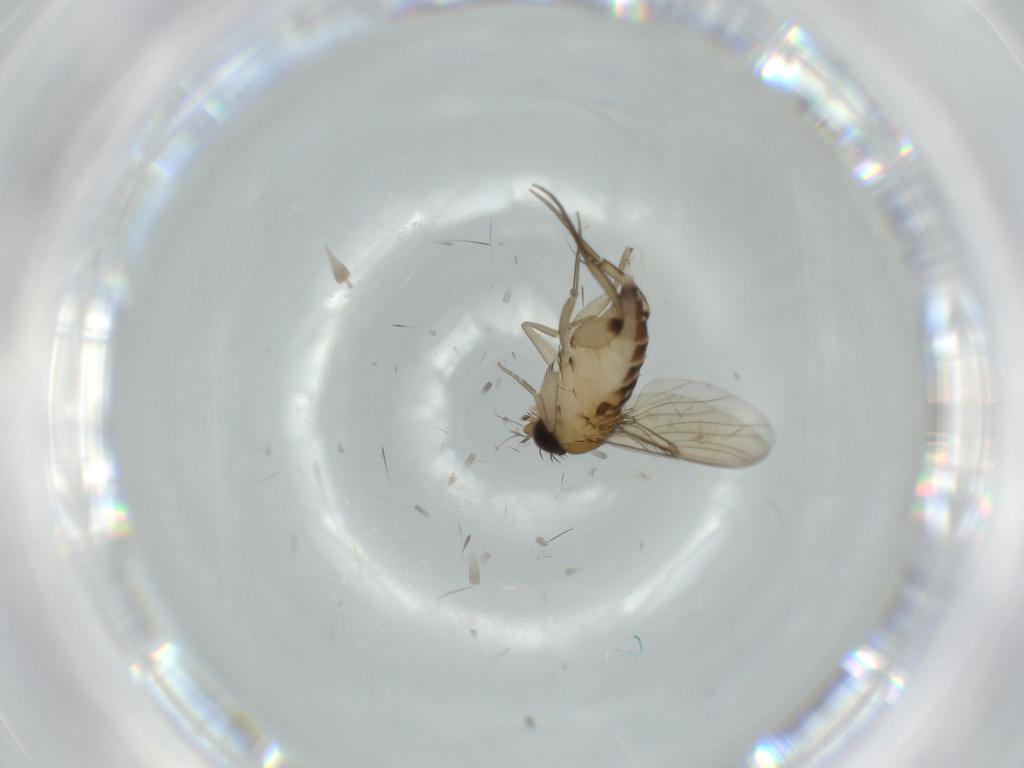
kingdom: Animalia
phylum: Arthropoda
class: Insecta
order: Diptera
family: Phoridae
